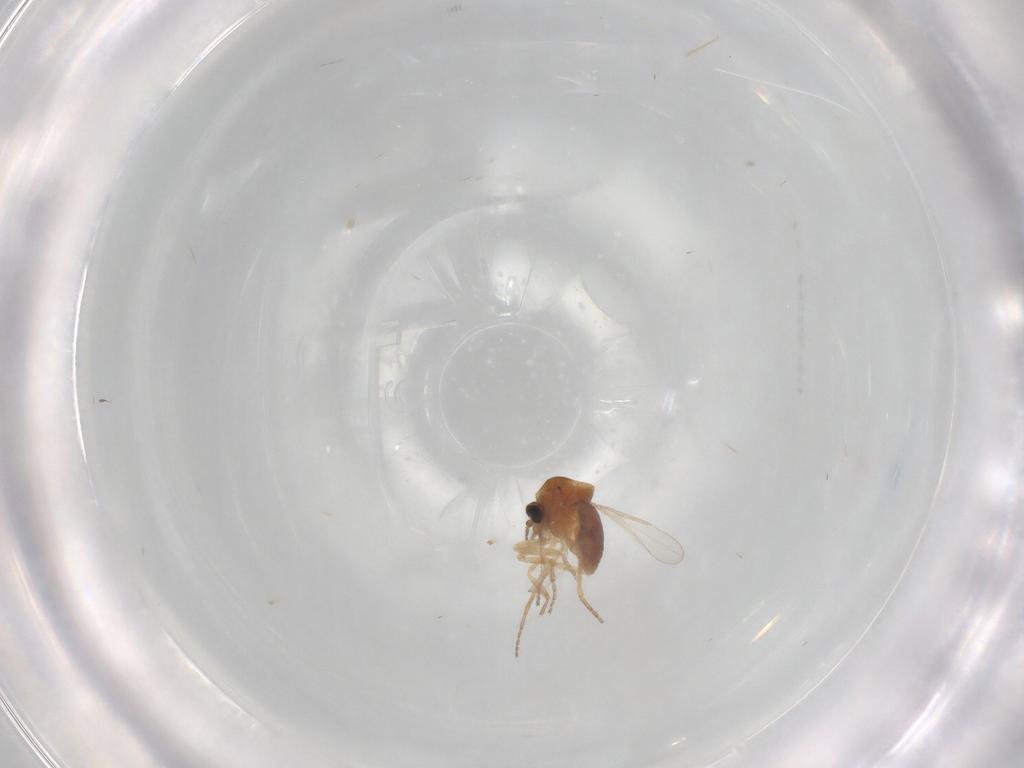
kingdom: Animalia
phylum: Arthropoda
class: Insecta
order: Diptera
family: Ceratopogonidae
